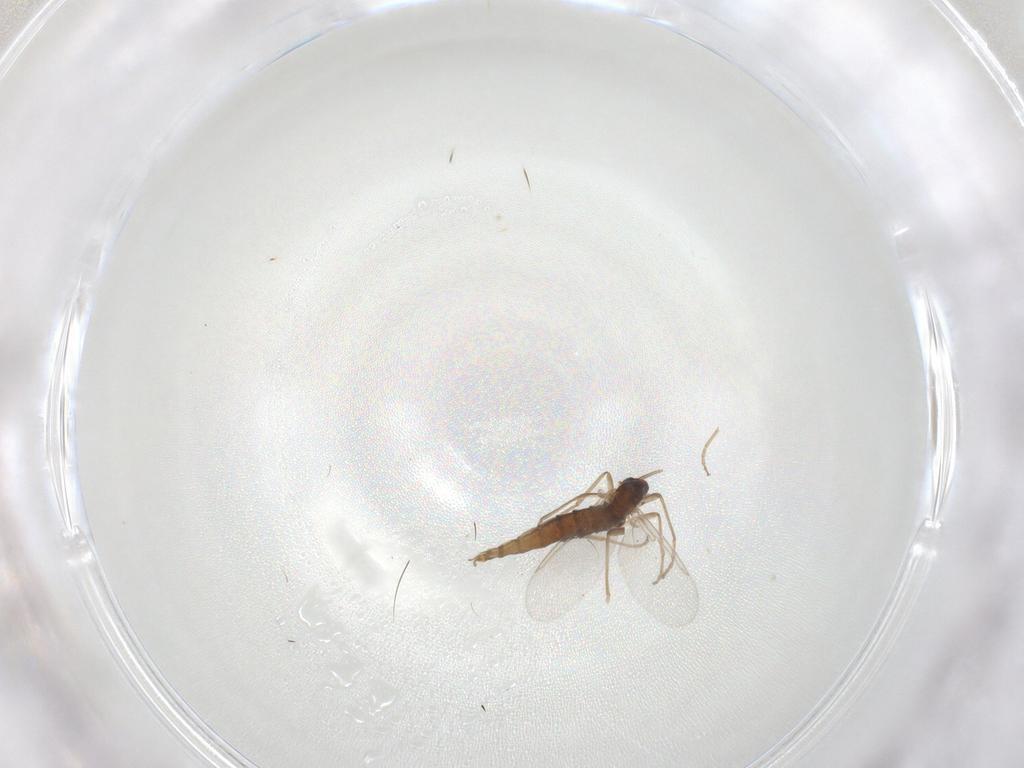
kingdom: Animalia
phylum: Arthropoda
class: Insecta
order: Diptera
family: Cecidomyiidae
